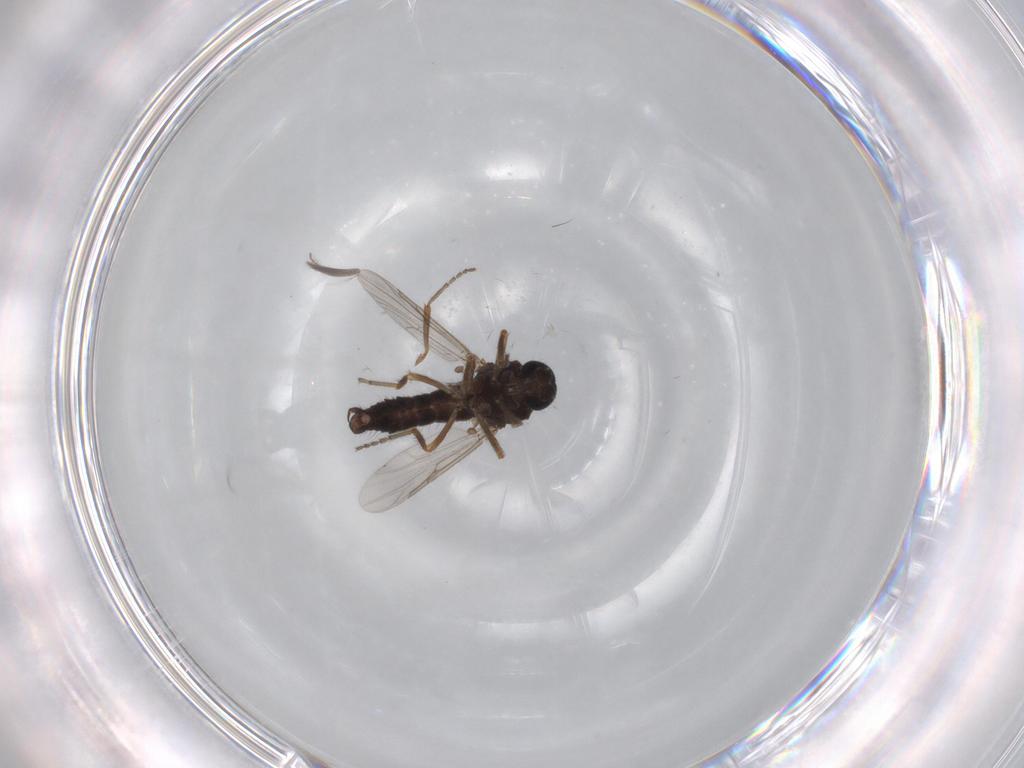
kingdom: Animalia
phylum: Arthropoda
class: Insecta
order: Diptera
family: Ceratopogonidae
